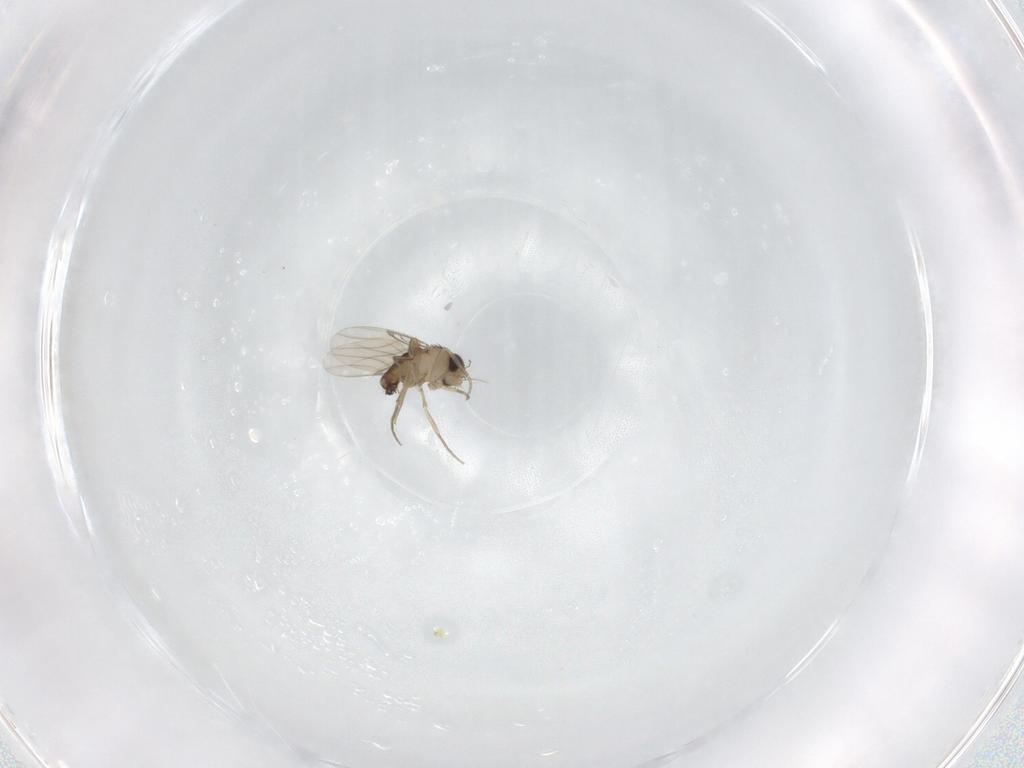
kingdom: Animalia
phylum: Arthropoda
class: Insecta
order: Diptera
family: Phoridae
